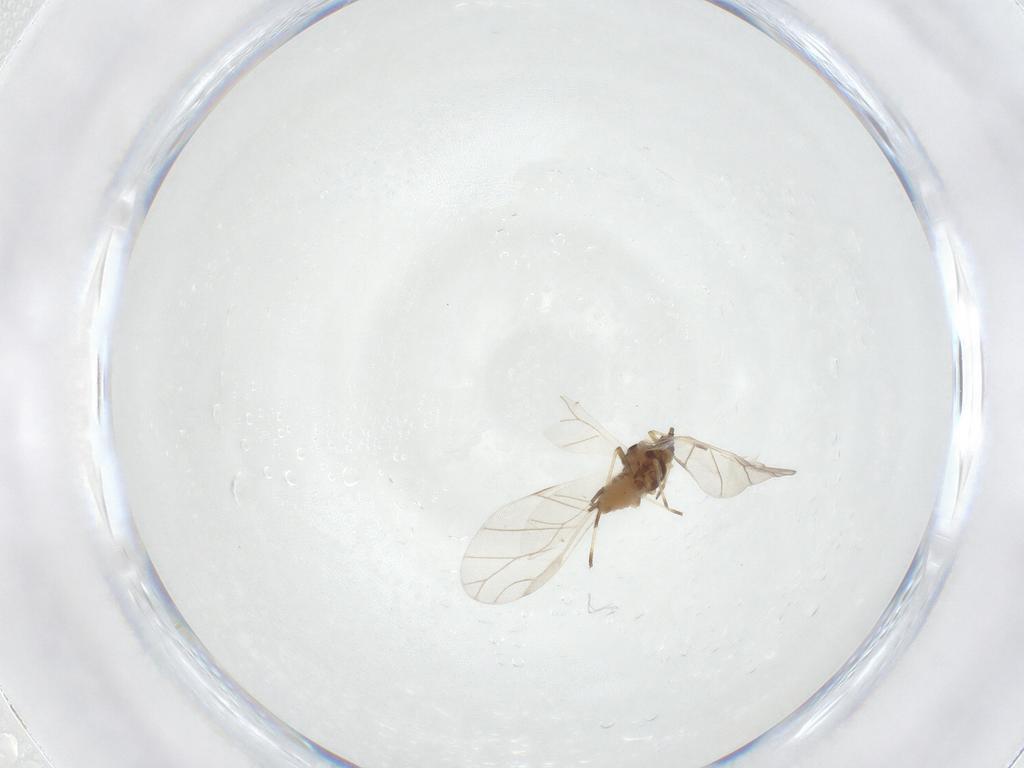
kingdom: Animalia
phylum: Arthropoda
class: Insecta
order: Hemiptera
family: Aphididae
